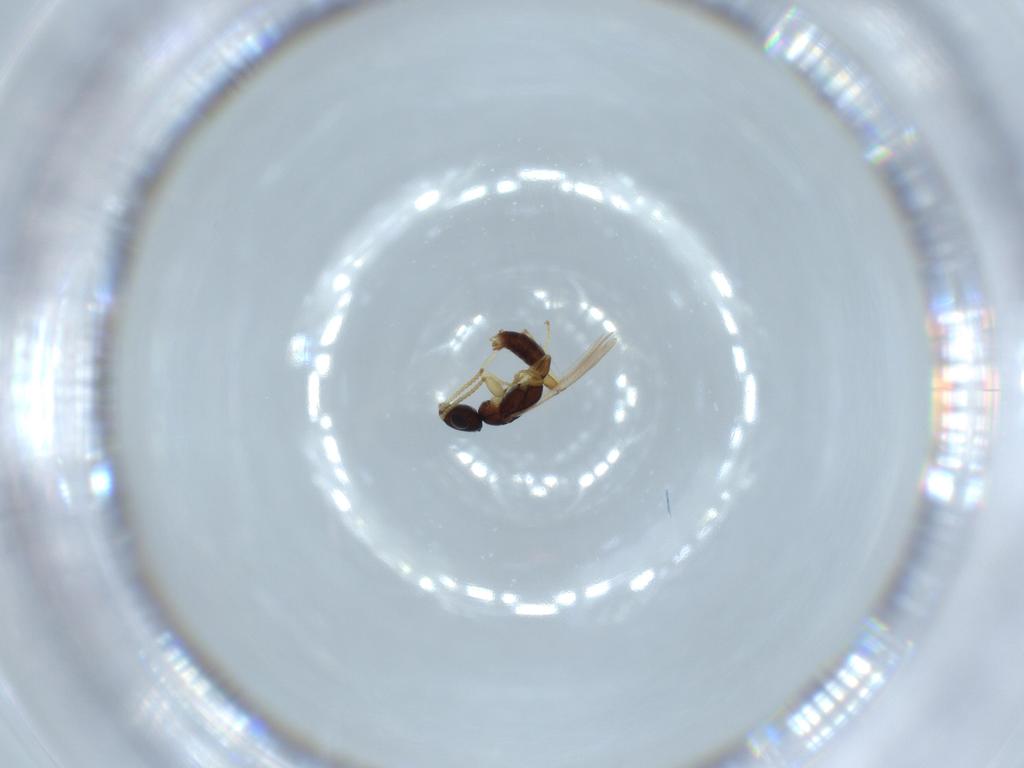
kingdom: Animalia
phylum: Arthropoda
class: Insecta
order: Hymenoptera
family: Bethylidae
